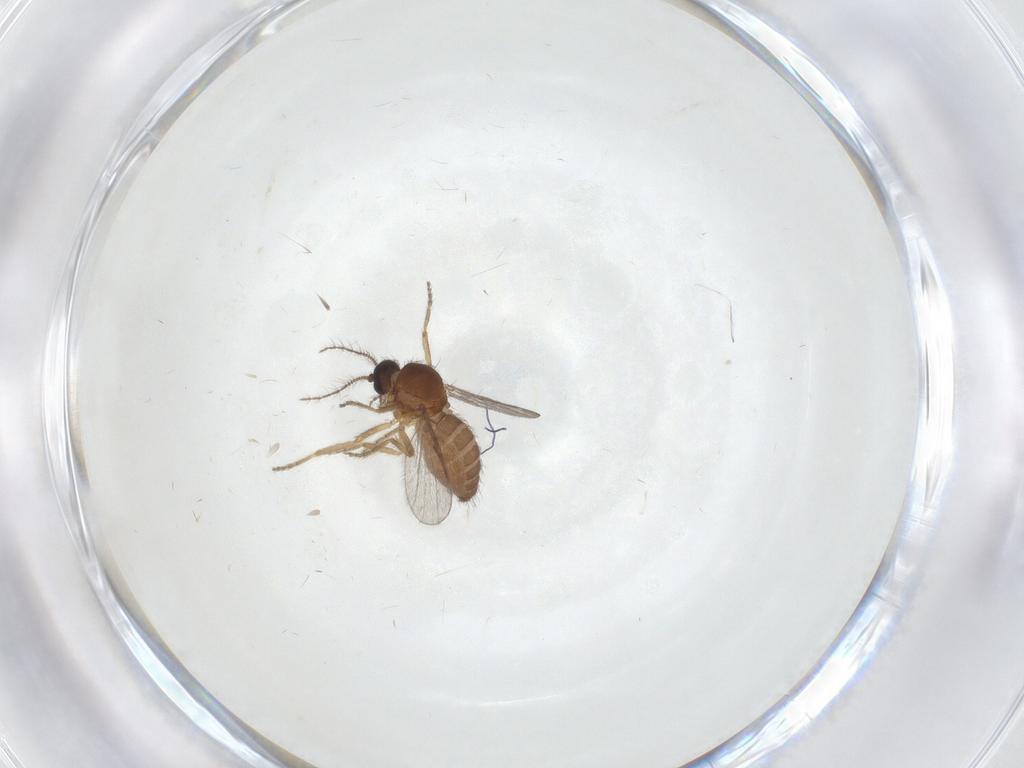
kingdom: Animalia
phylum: Arthropoda
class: Insecta
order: Diptera
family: Ceratopogonidae
